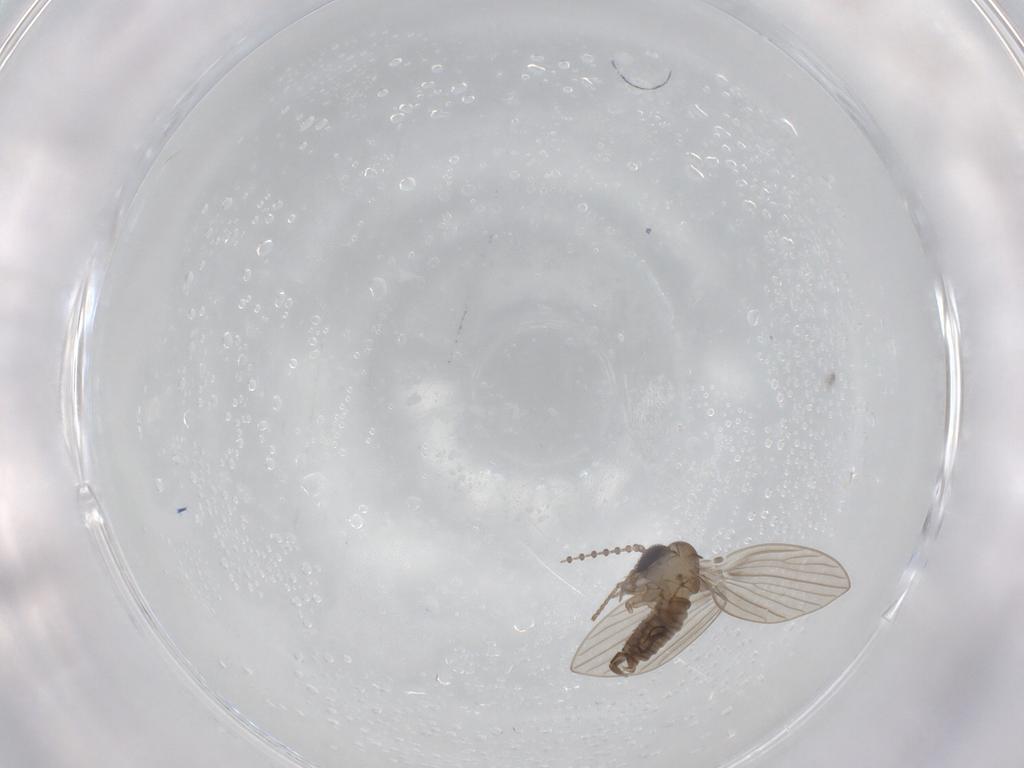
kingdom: Animalia
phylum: Arthropoda
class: Insecta
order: Diptera
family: Psychodidae
